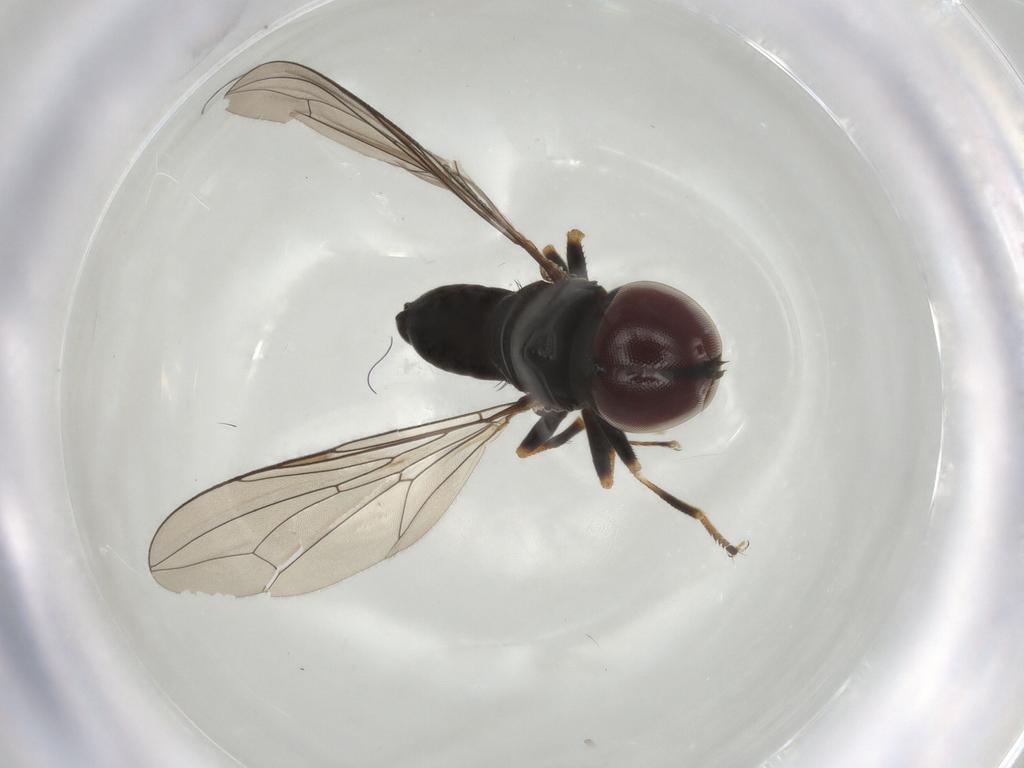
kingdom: Animalia
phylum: Arthropoda
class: Insecta
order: Diptera
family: Pipunculidae
